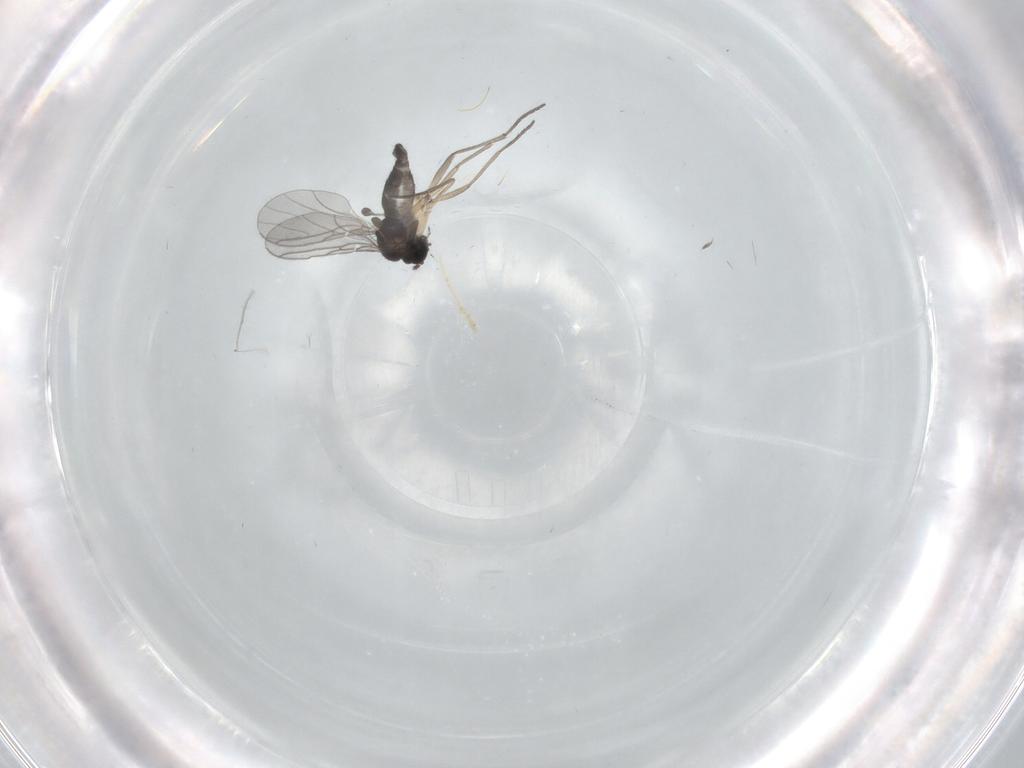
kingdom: Animalia
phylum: Arthropoda
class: Insecta
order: Diptera
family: Sciaridae
